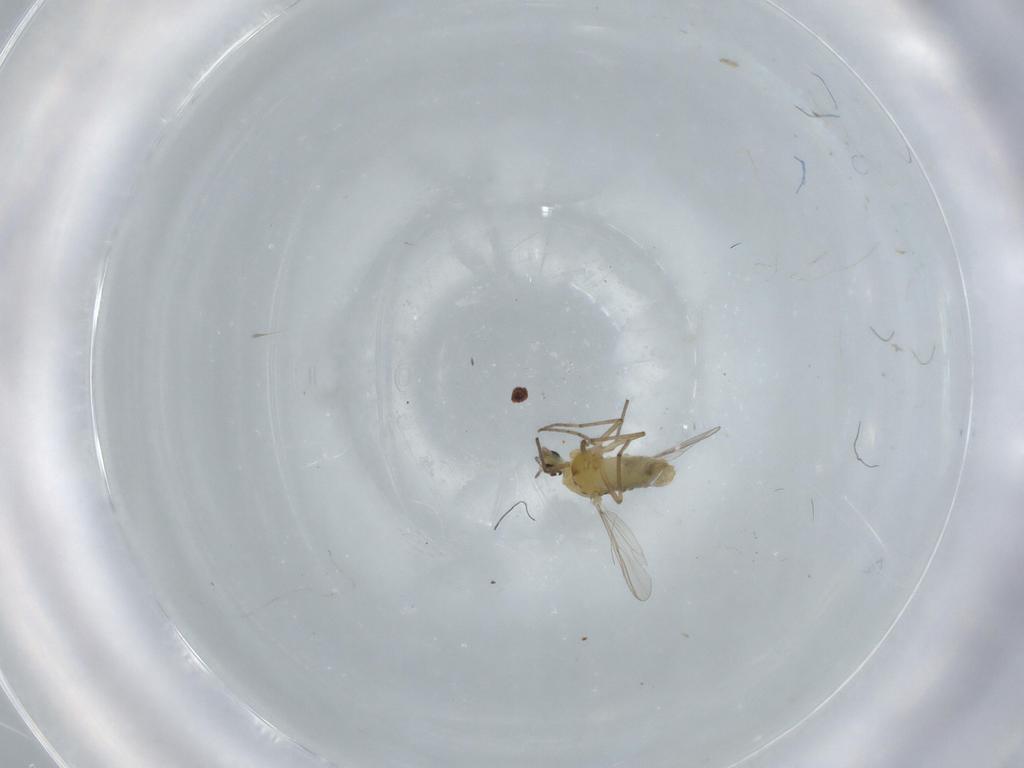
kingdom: Animalia
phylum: Arthropoda
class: Insecta
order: Diptera
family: Chironomidae
